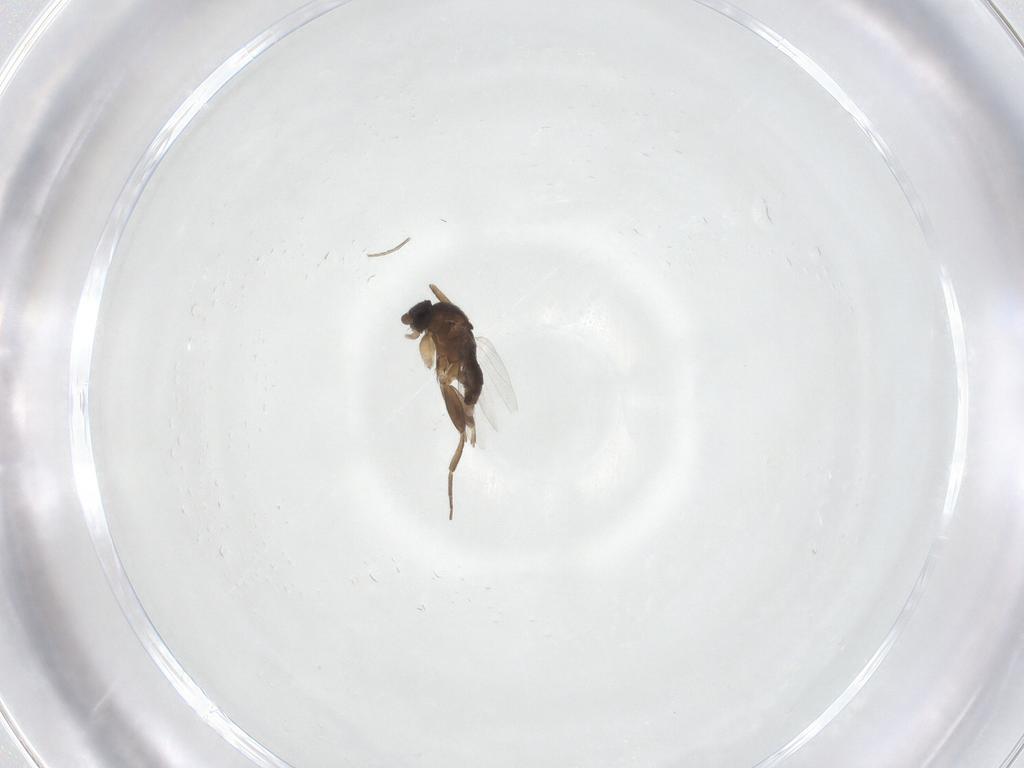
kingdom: Animalia
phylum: Arthropoda
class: Insecta
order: Diptera
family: Phoridae
